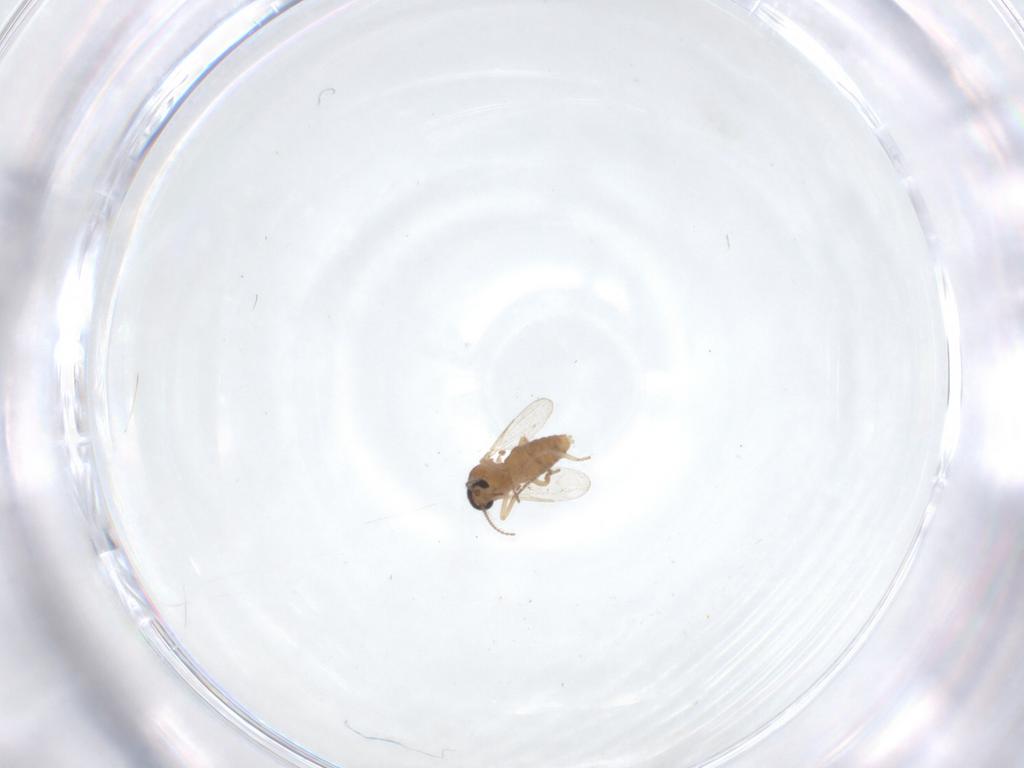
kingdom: Animalia
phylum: Arthropoda
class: Insecta
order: Diptera
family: Ceratopogonidae
